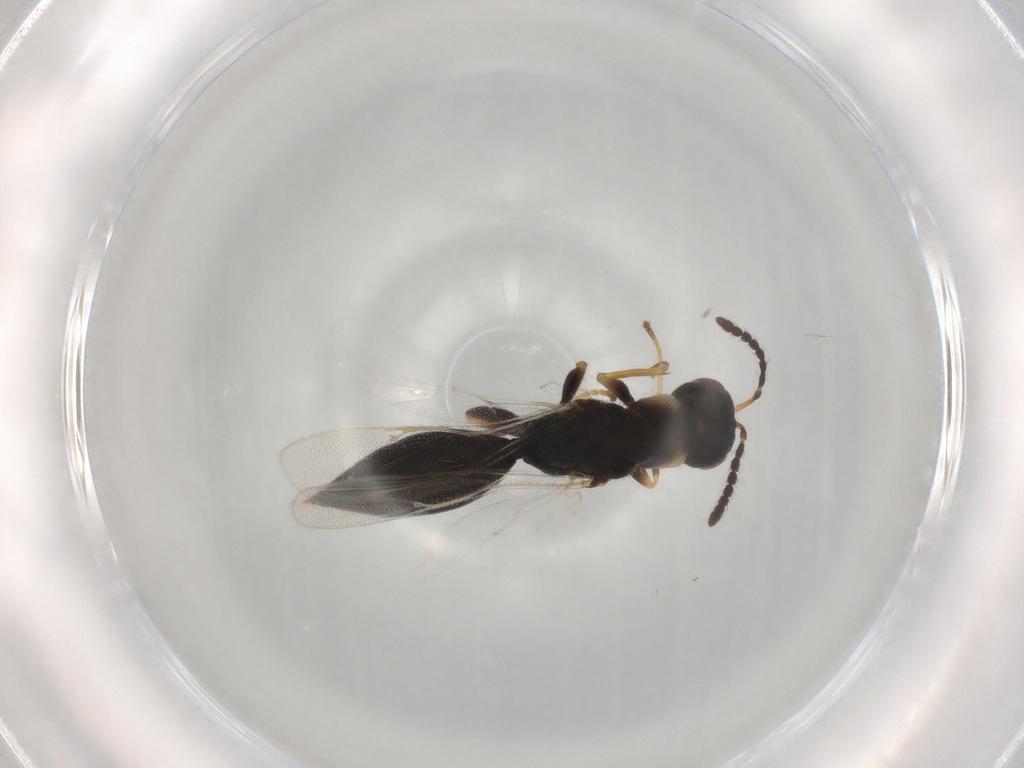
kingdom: Animalia
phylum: Arthropoda
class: Insecta
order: Hymenoptera
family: Eurytomidae
